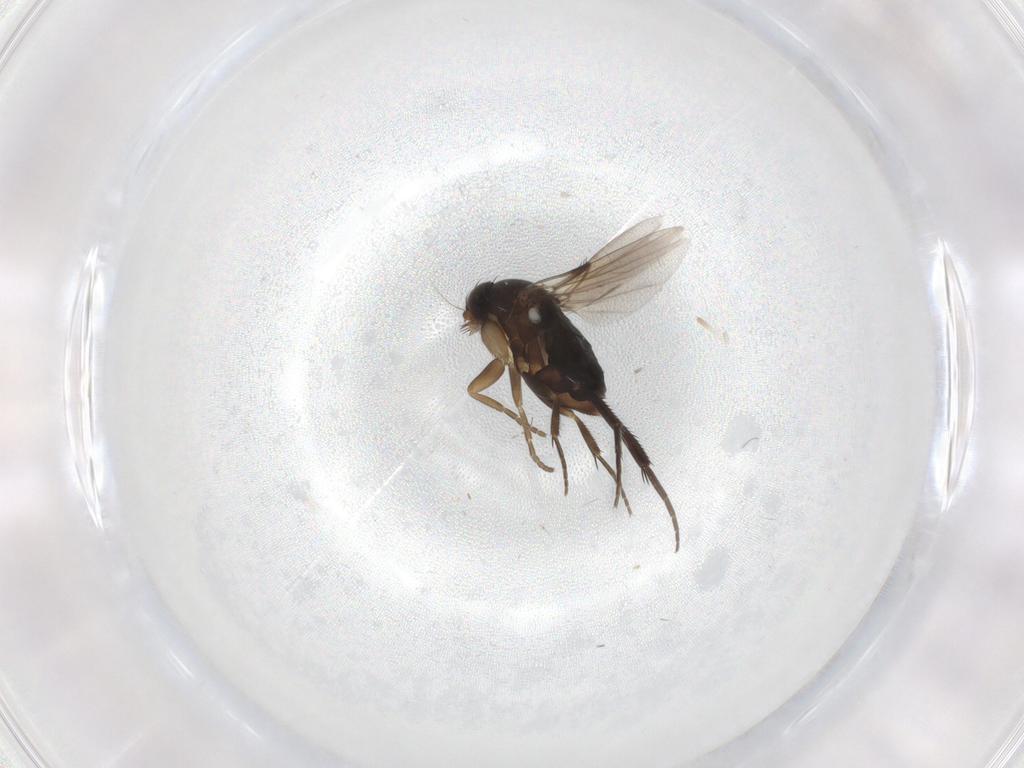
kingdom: Animalia
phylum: Arthropoda
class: Insecta
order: Diptera
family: Phoridae
